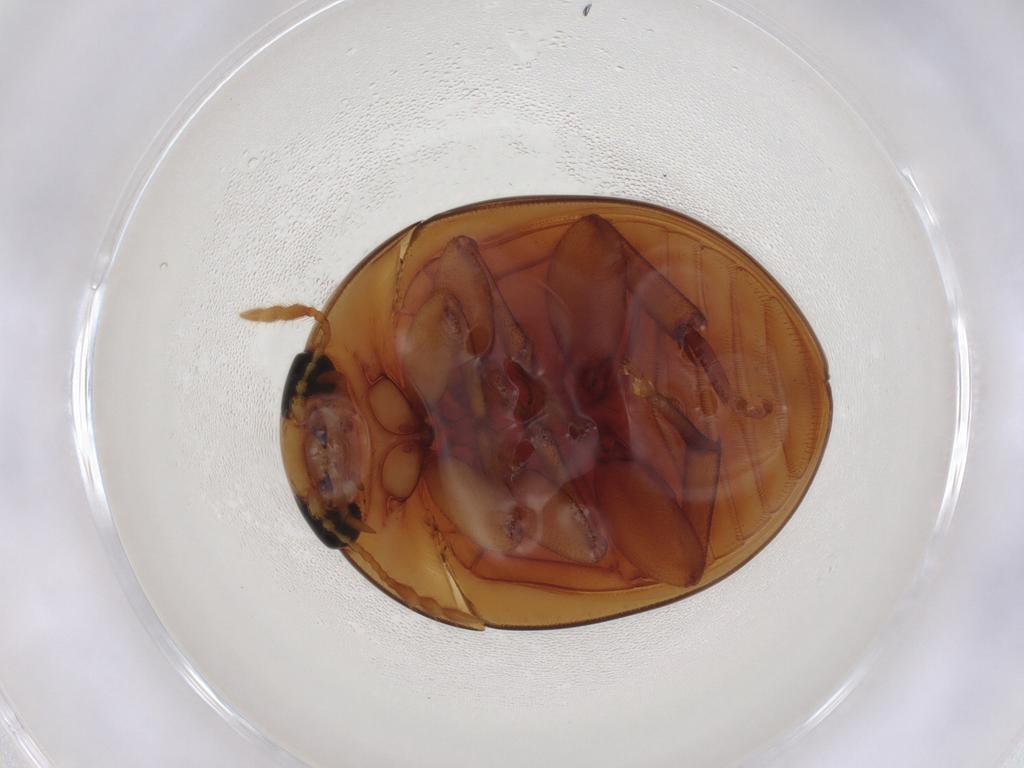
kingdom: Animalia
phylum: Arthropoda
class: Insecta
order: Coleoptera
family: Phalacridae
